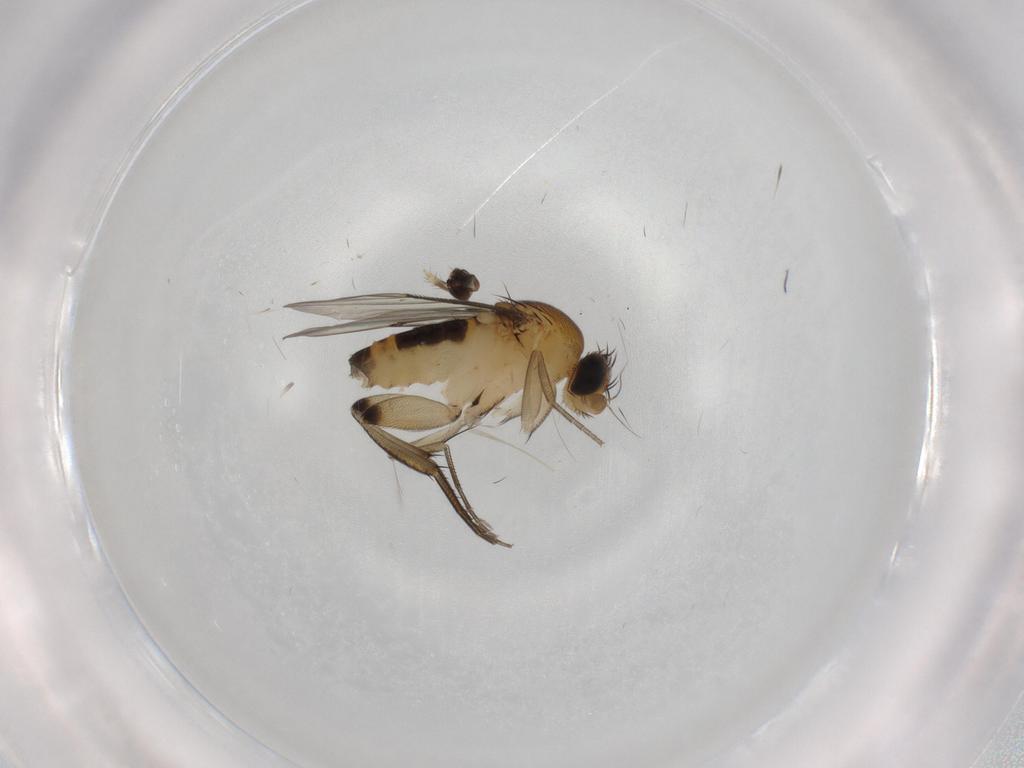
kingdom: Animalia
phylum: Arthropoda
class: Insecta
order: Diptera
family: Phoridae
